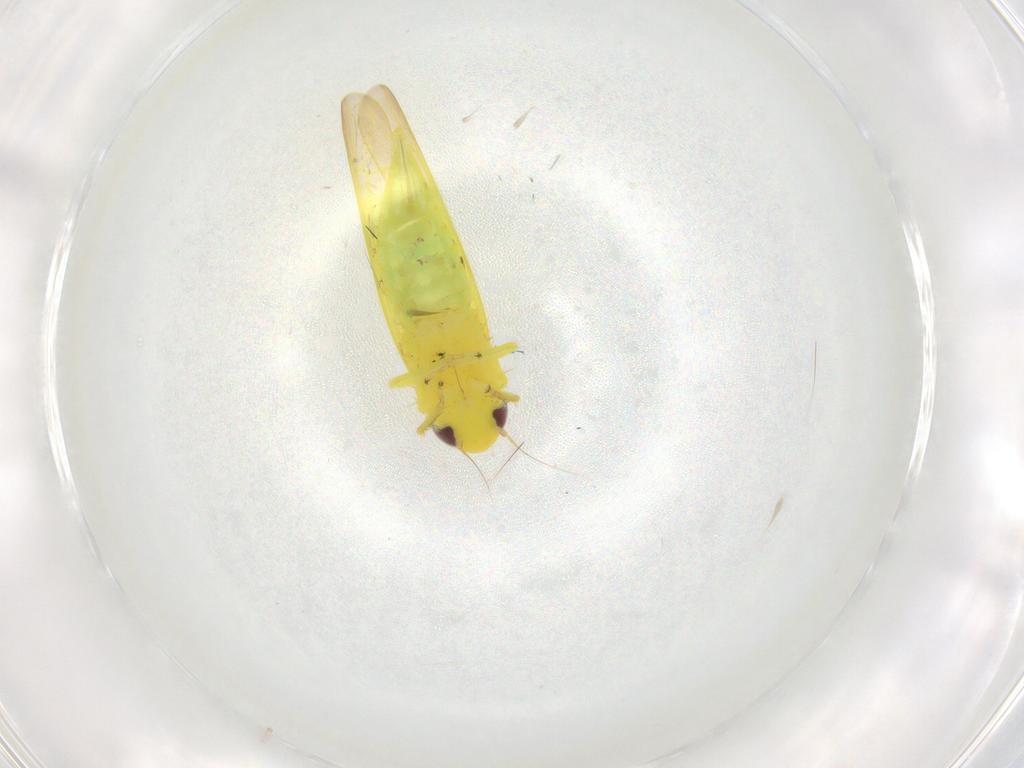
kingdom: Animalia
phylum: Arthropoda
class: Insecta
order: Hemiptera
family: Cicadellidae
